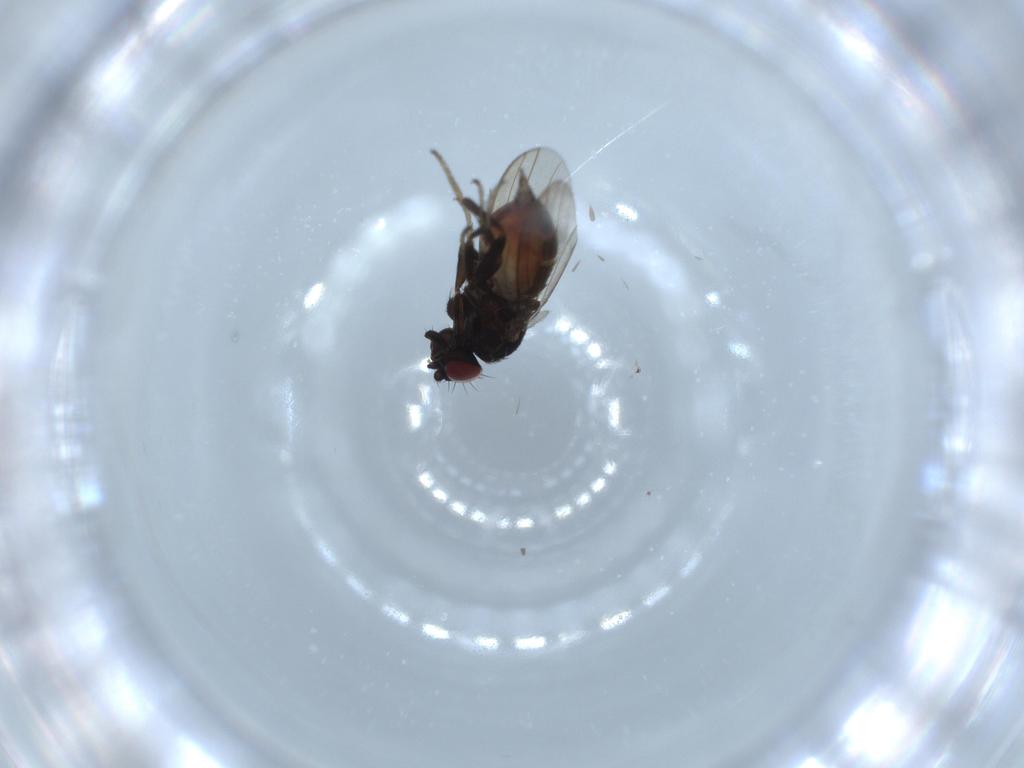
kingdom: Animalia
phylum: Arthropoda
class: Insecta
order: Diptera
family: Milichiidae
